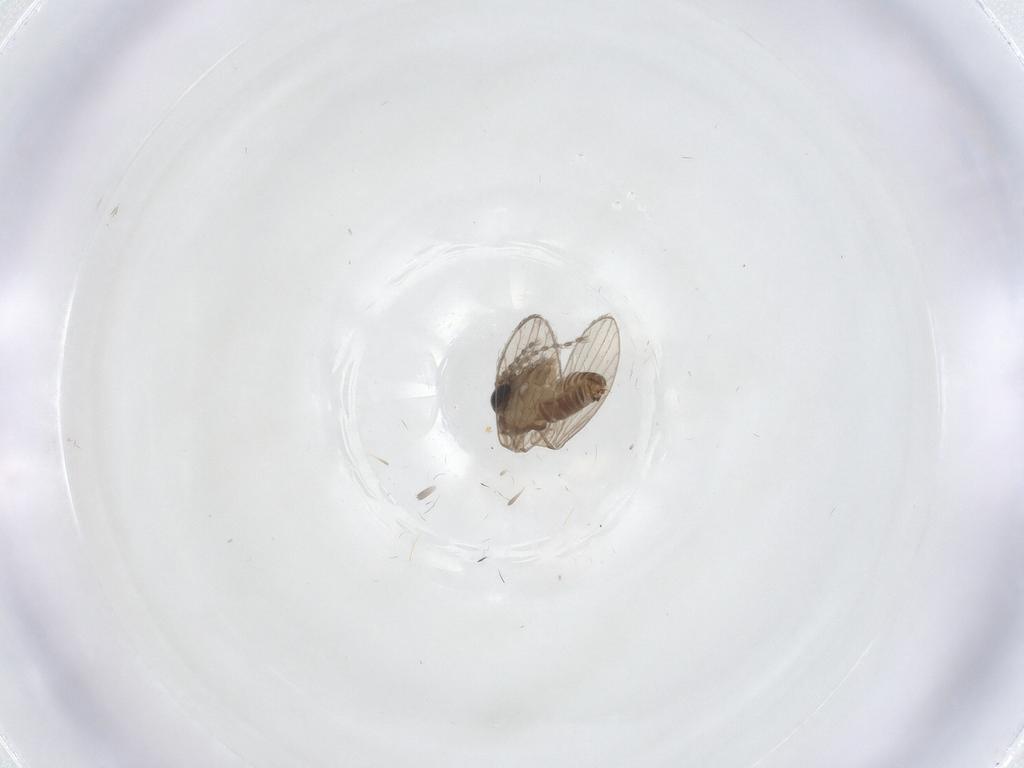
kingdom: Animalia
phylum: Arthropoda
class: Insecta
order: Diptera
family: Psychodidae
